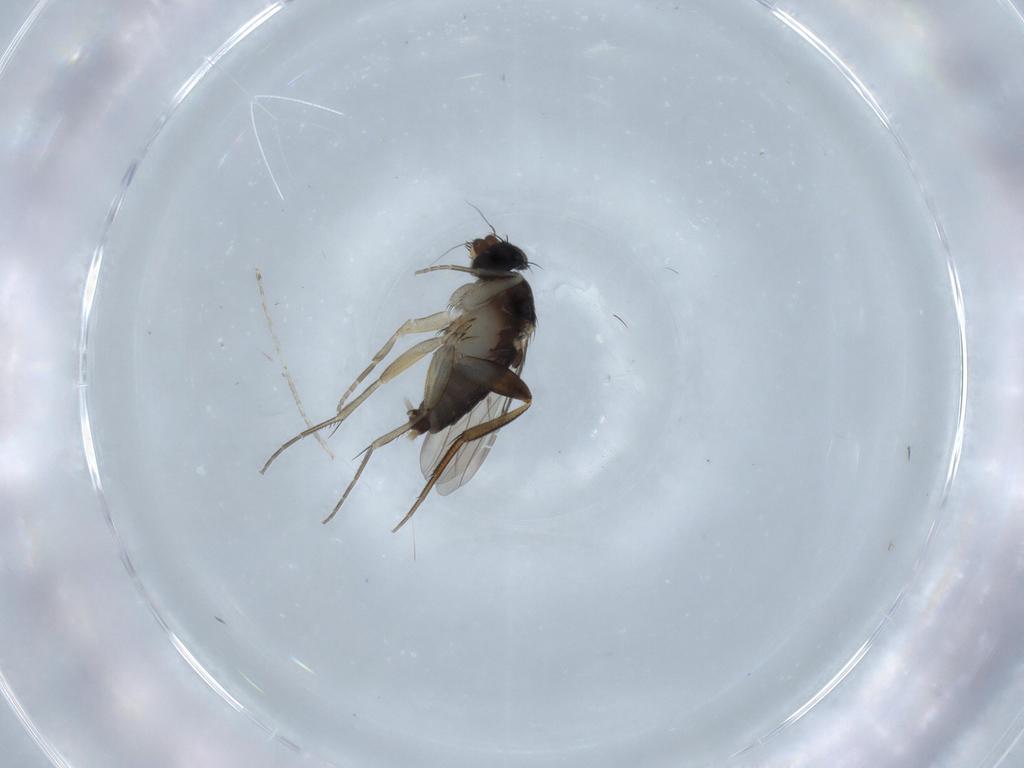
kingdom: Animalia
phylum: Arthropoda
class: Insecta
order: Diptera
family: Phoridae
